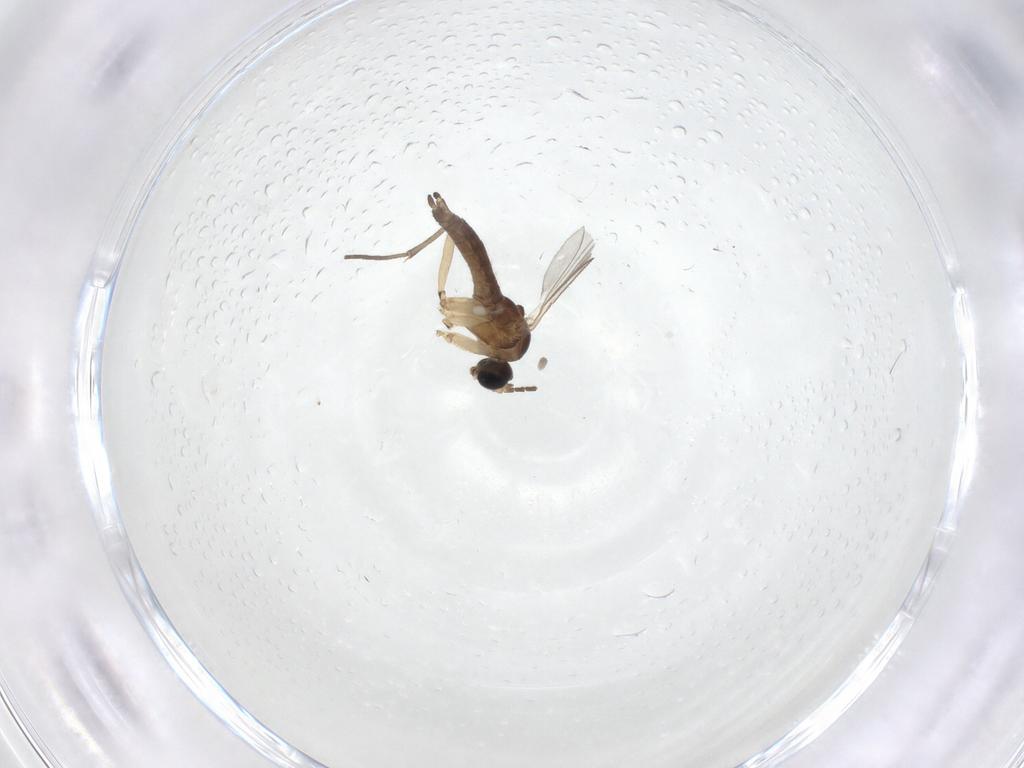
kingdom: Animalia
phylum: Arthropoda
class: Insecta
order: Diptera
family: Sciaridae
